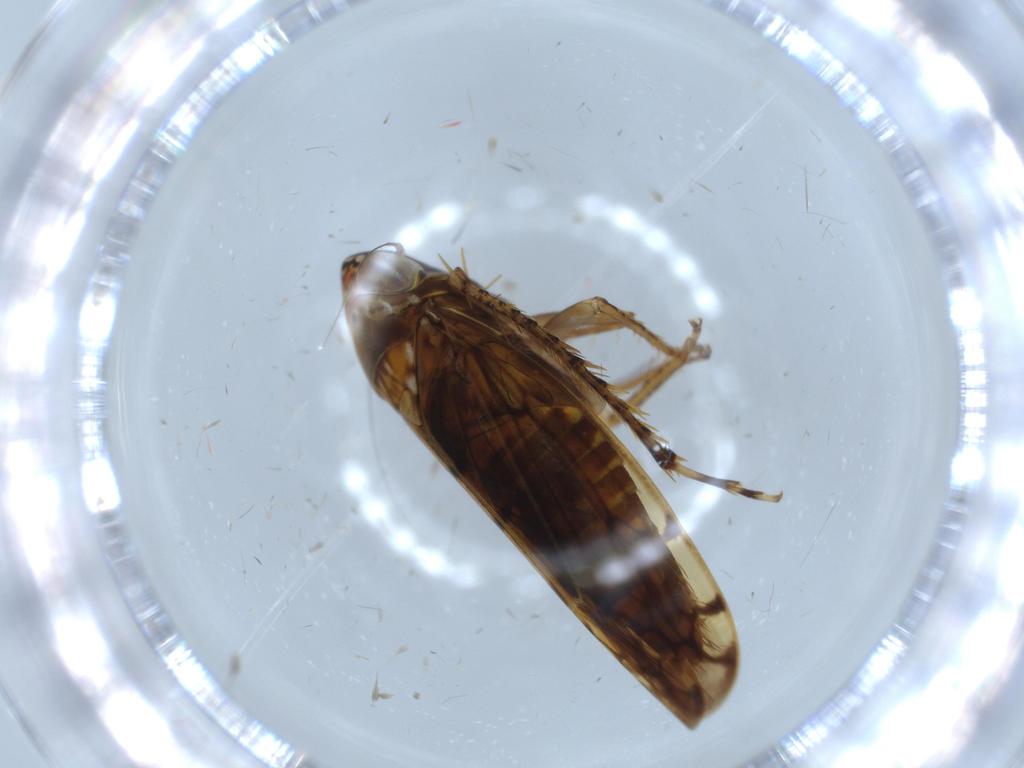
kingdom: Animalia
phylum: Arthropoda
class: Insecta
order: Hemiptera
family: Cicadellidae
